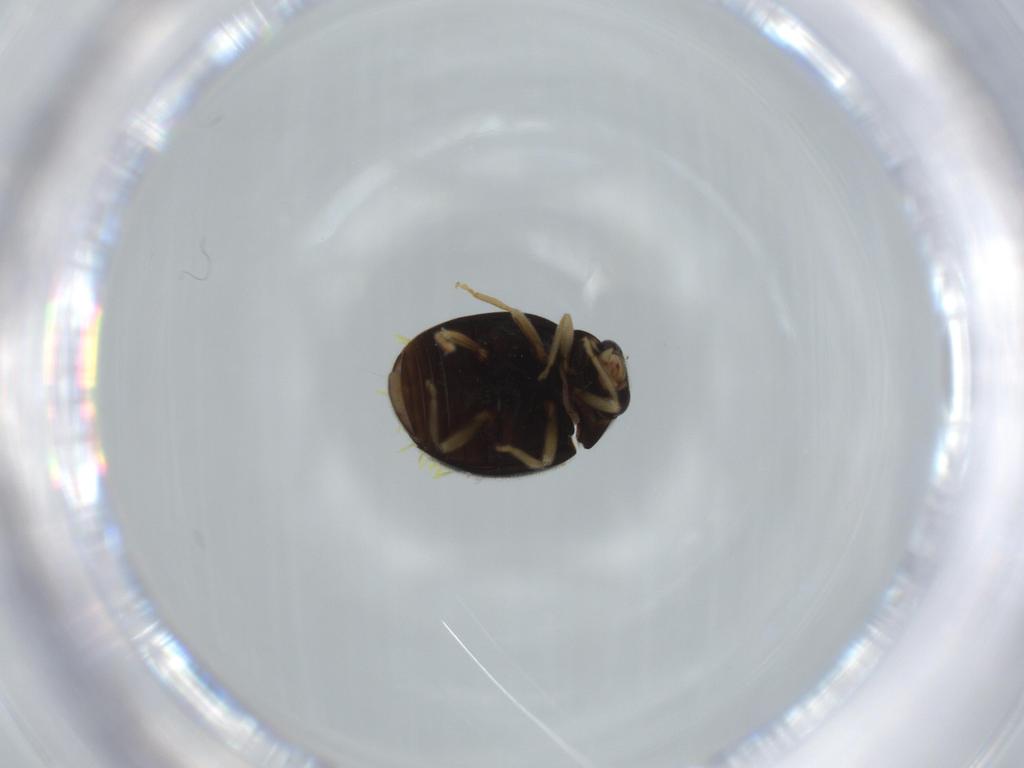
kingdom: Animalia
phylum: Arthropoda
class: Insecta
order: Coleoptera
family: Coccinellidae
